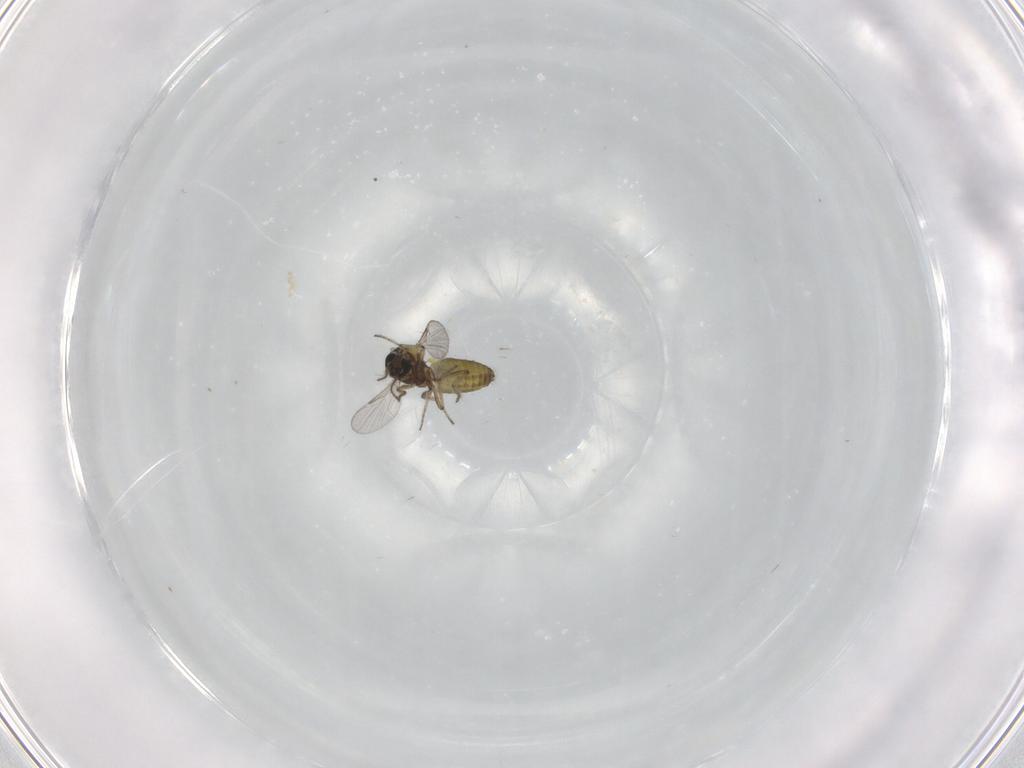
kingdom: Animalia
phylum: Arthropoda
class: Insecta
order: Diptera
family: Ceratopogonidae
